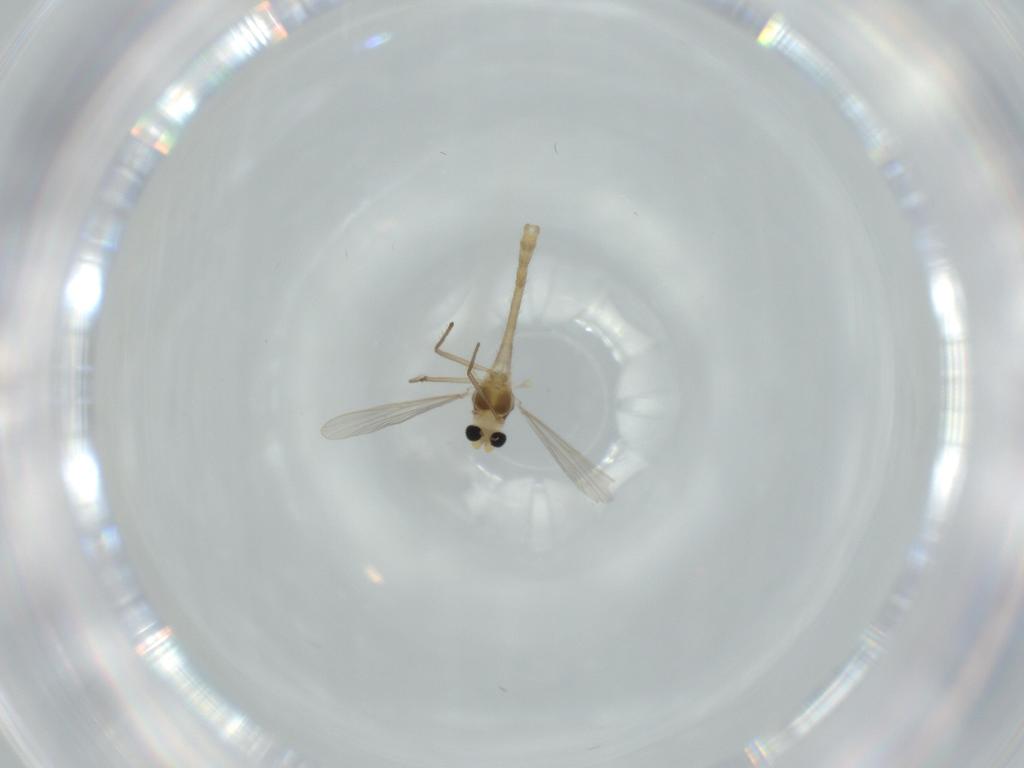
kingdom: Animalia
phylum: Arthropoda
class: Insecta
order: Diptera
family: Chironomidae
